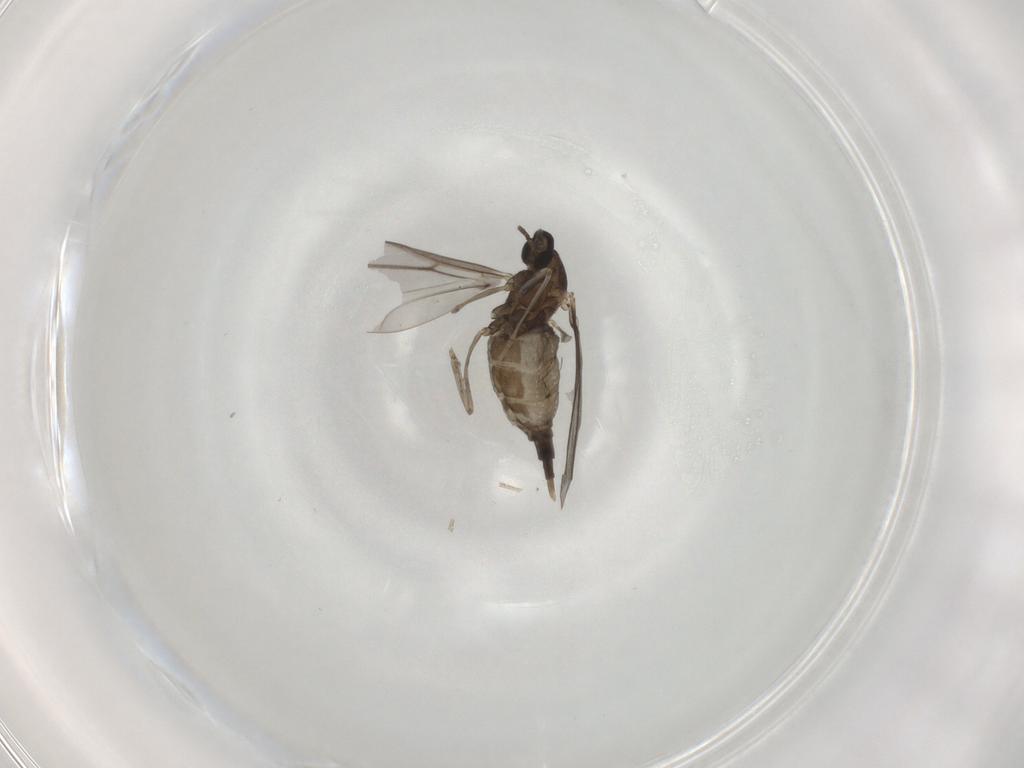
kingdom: Animalia
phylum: Arthropoda
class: Insecta
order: Diptera
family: Cecidomyiidae
